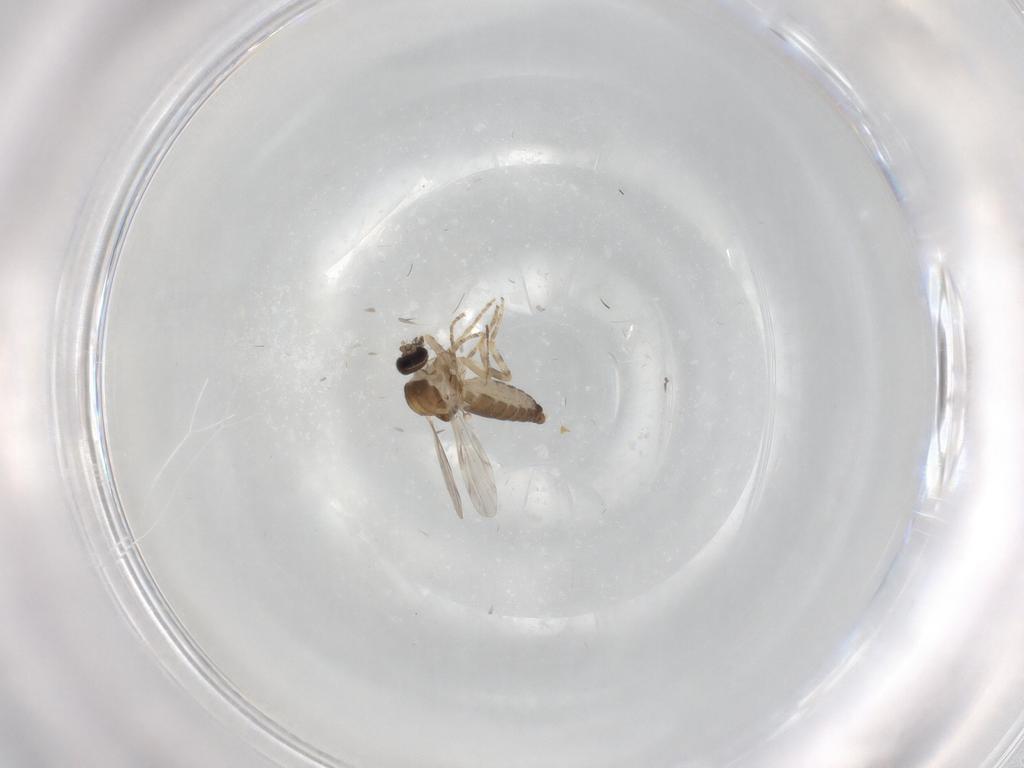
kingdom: Animalia
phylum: Arthropoda
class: Insecta
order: Diptera
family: Ceratopogonidae
